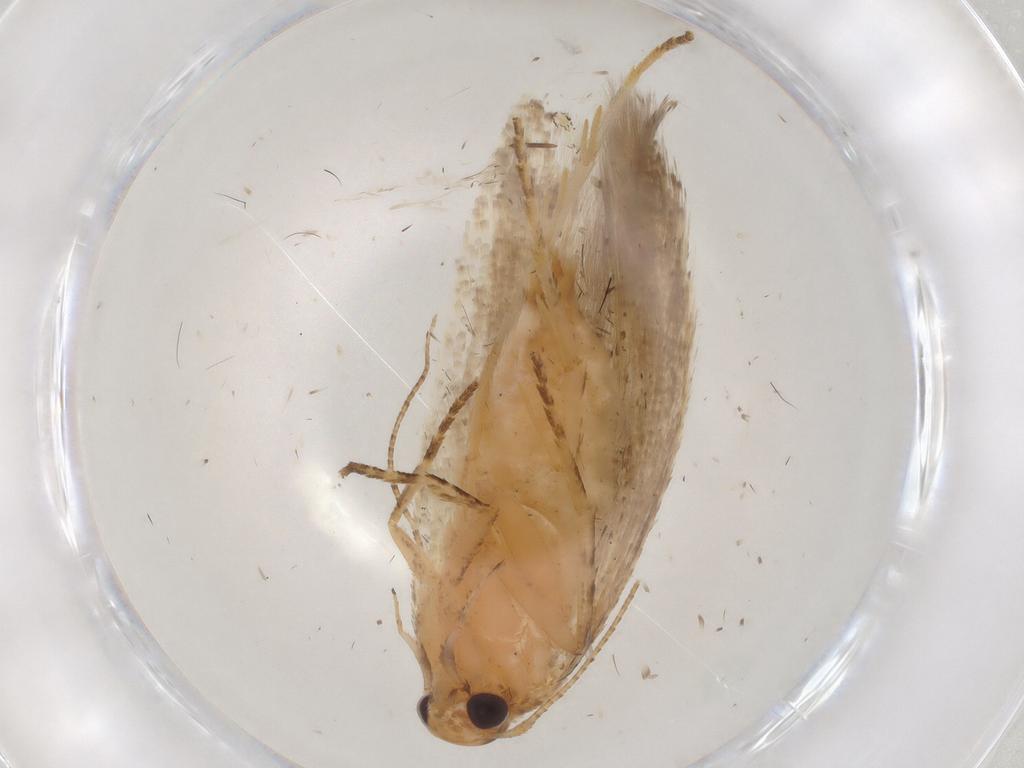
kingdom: Animalia
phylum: Arthropoda
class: Insecta
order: Lepidoptera
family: Gelechiidae
